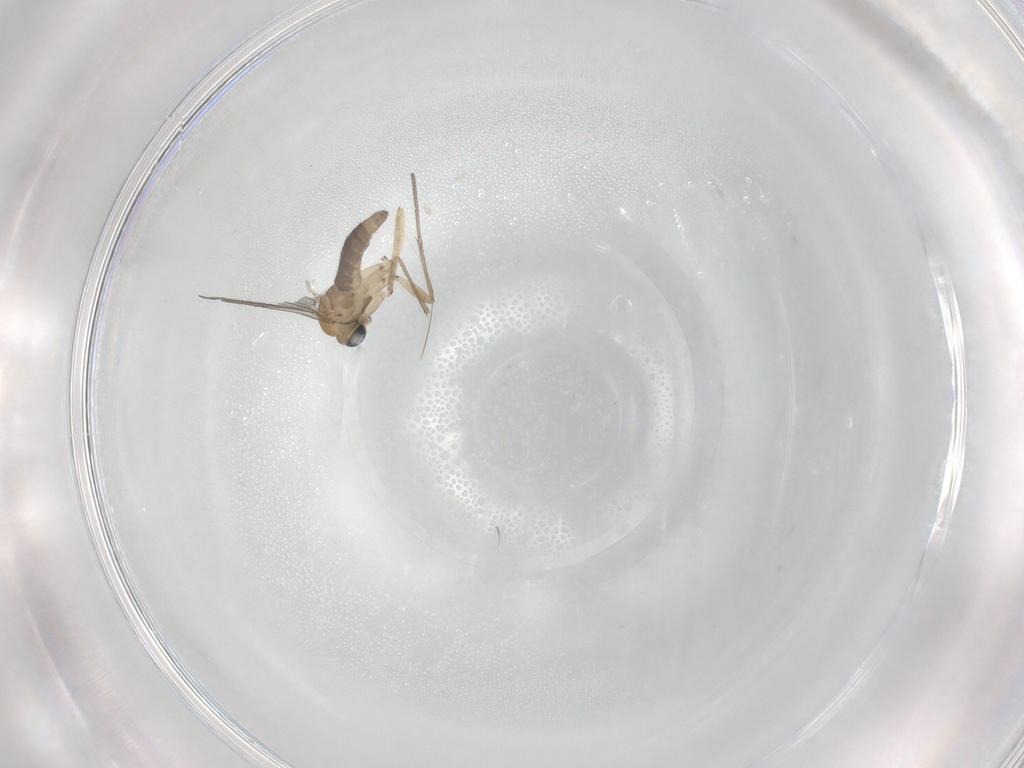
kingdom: Animalia
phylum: Arthropoda
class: Insecta
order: Diptera
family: Sciaridae
